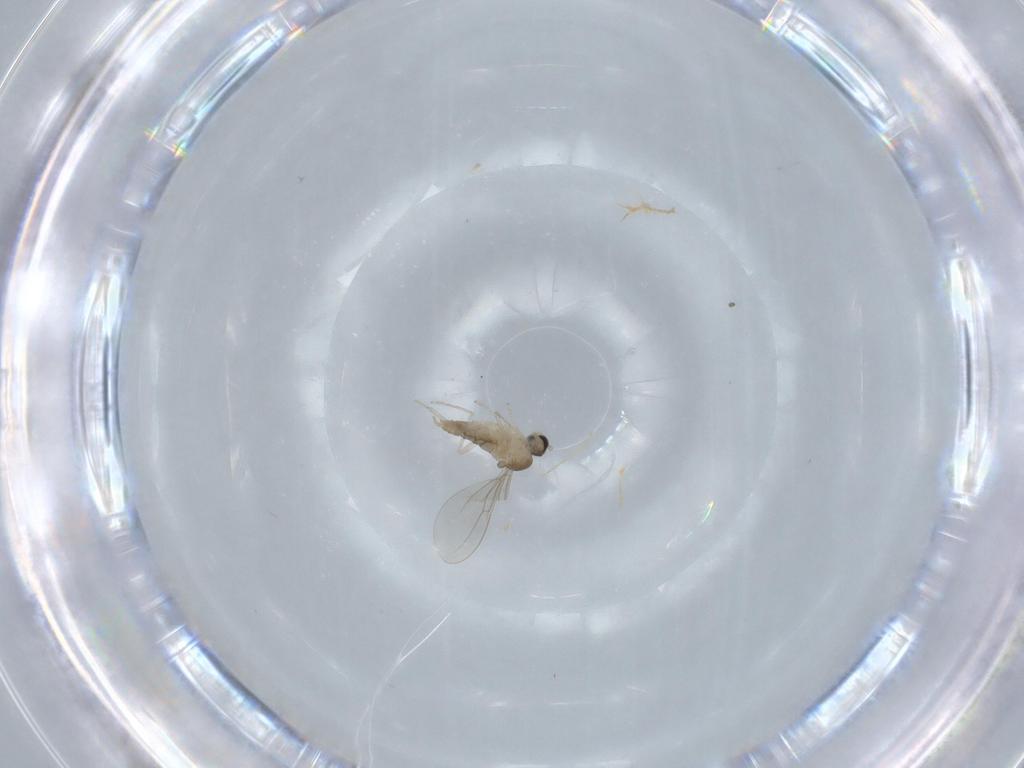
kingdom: Animalia
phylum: Arthropoda
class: Insecta
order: Diptera
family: Cecidomyiidae
